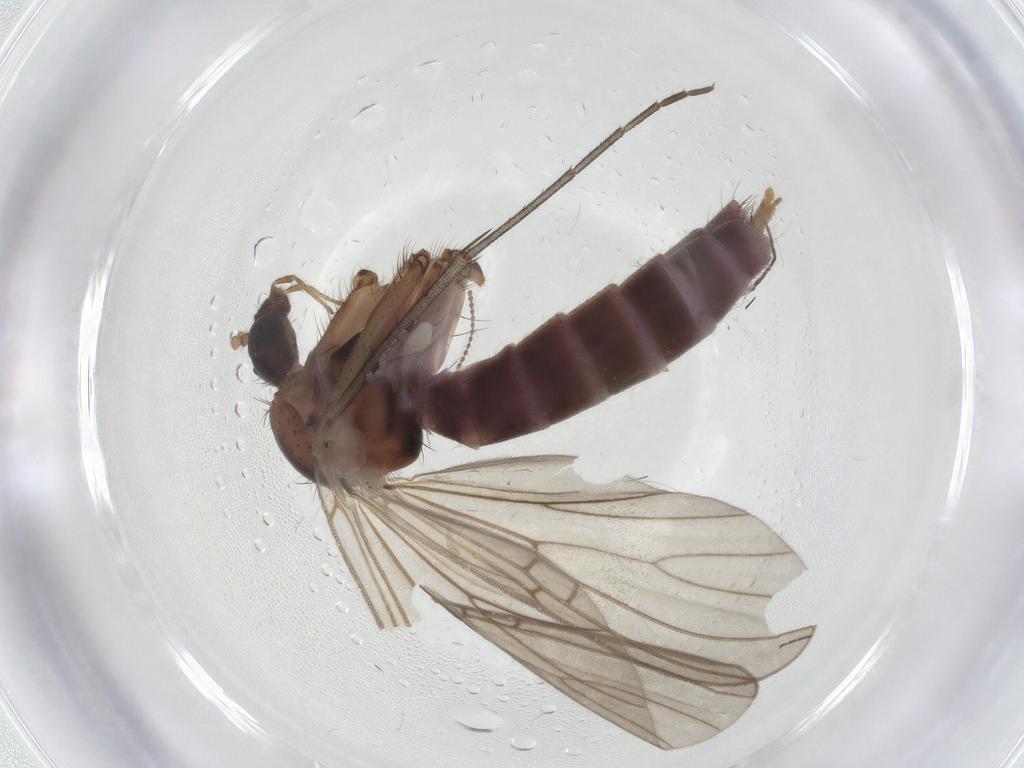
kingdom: Animalia
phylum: Arthropoda
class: Insecta
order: Diptera
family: Mycetophilidae
